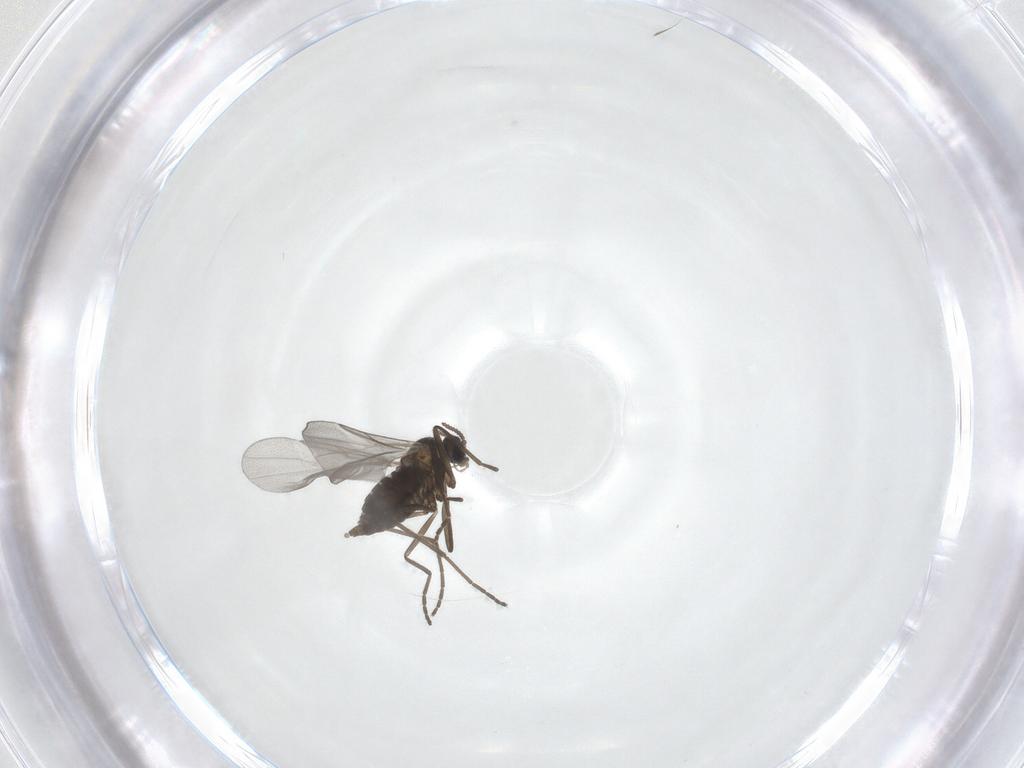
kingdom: Animalia
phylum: Arthropoda
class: Insecta
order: Diptera
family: Cecidomyiidae
